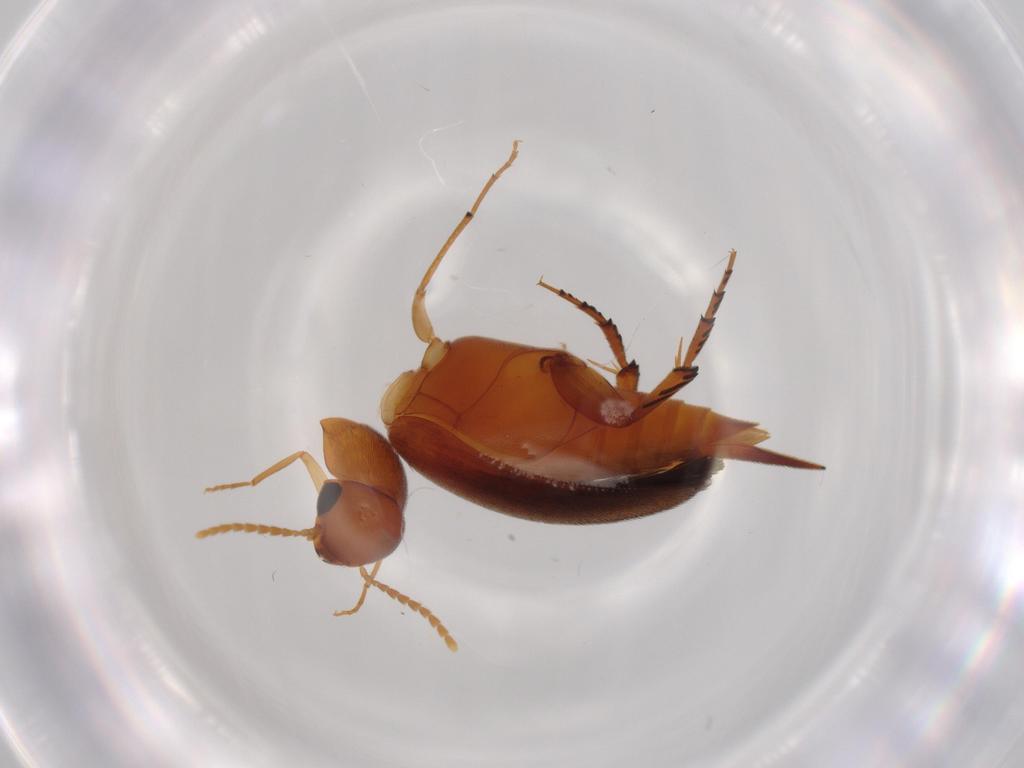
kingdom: Animalia
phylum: Arthropoda
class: Insecta
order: Coleoptera
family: Mordellidae
